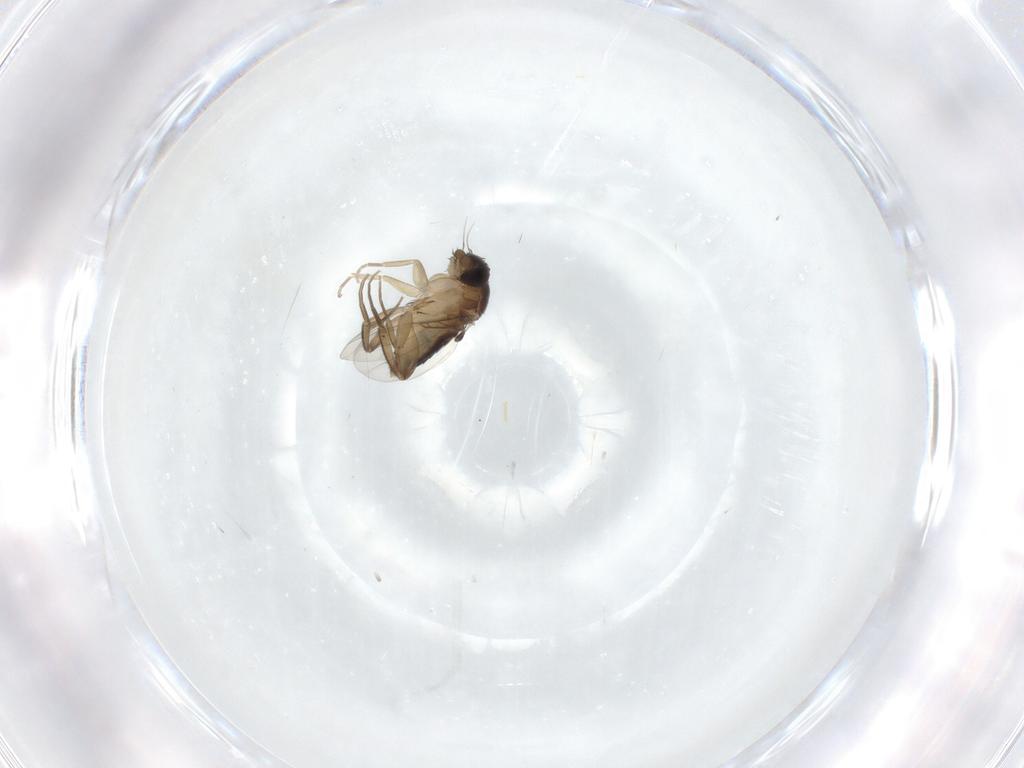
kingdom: Animalia
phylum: Arthropoda
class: Insecta
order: Diptera
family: Phoridae
